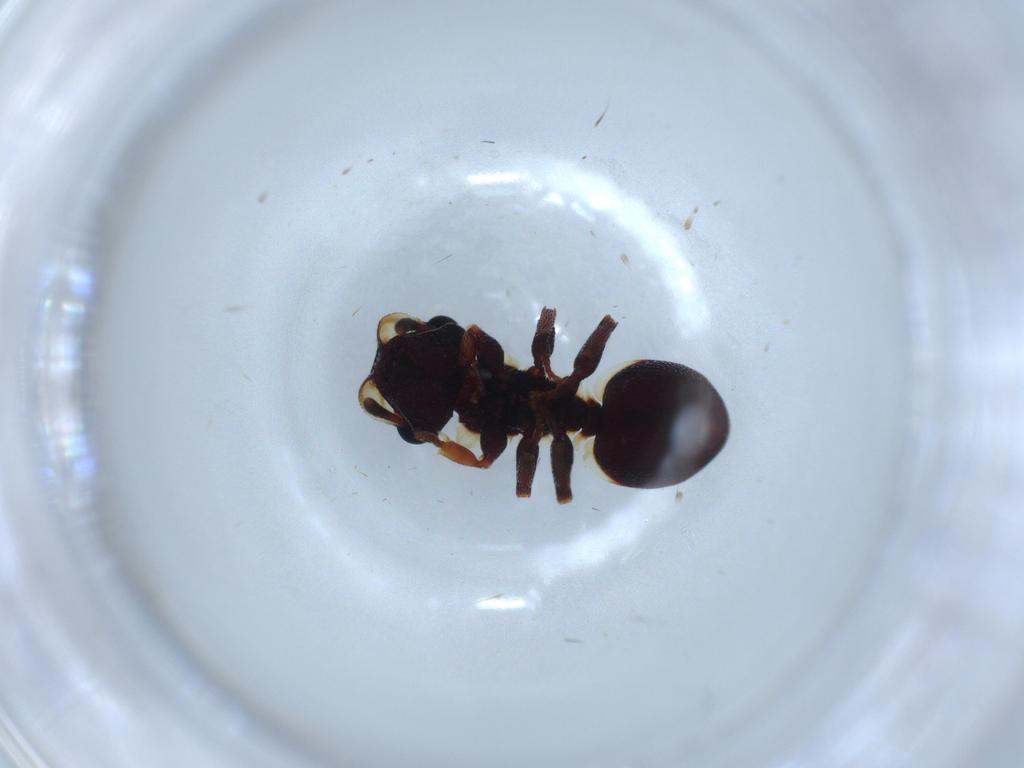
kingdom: Animalia
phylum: Arthropoda
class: Insecta
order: Hymenoptera
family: Formicidae
